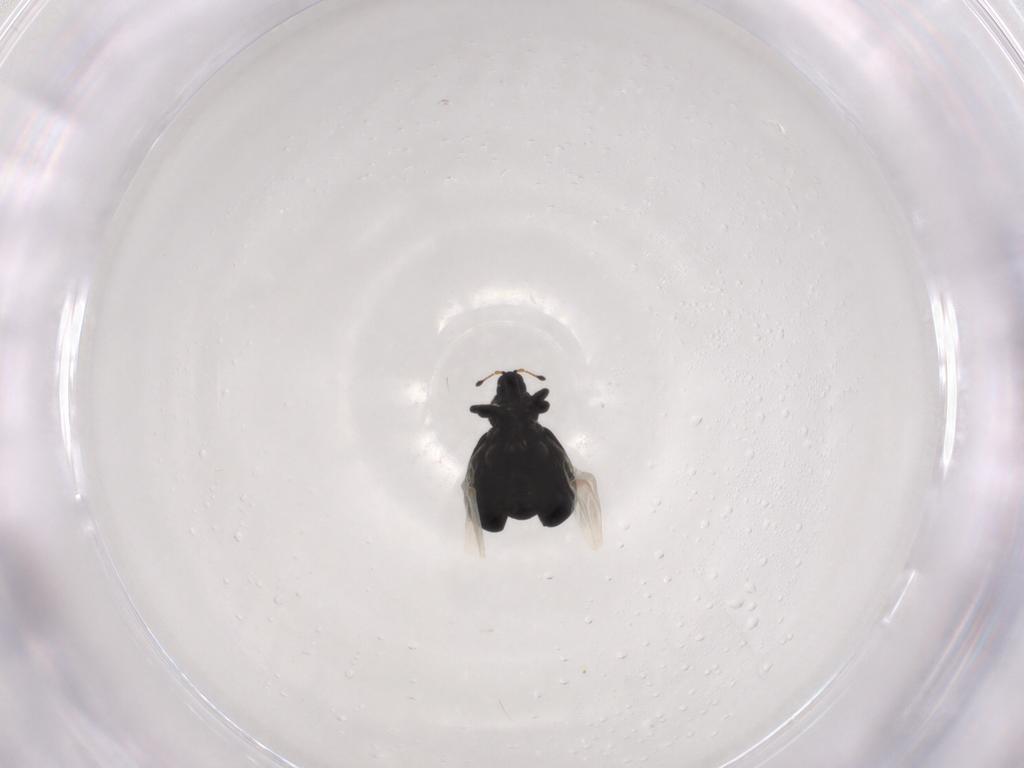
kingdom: Animalia
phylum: Arthropoda
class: Insecta
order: Coleoptera
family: Curculionidae
